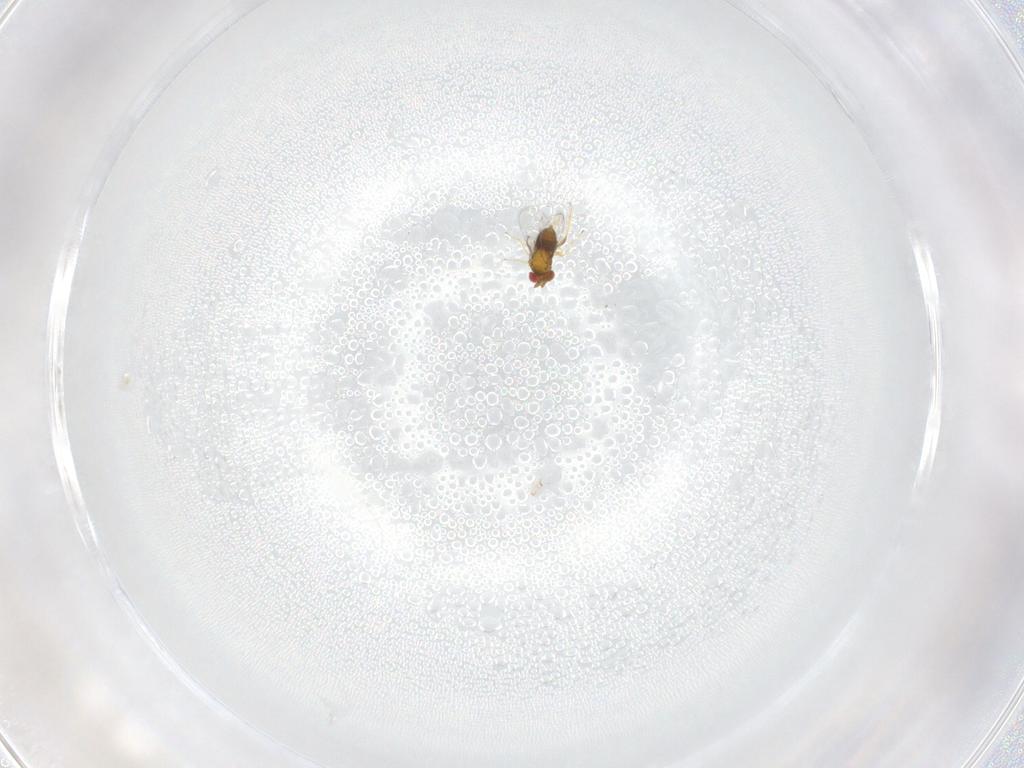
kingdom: Animalia
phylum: Arthropoda
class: Insecta
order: Hymenoptera
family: Trichogrammatidae
